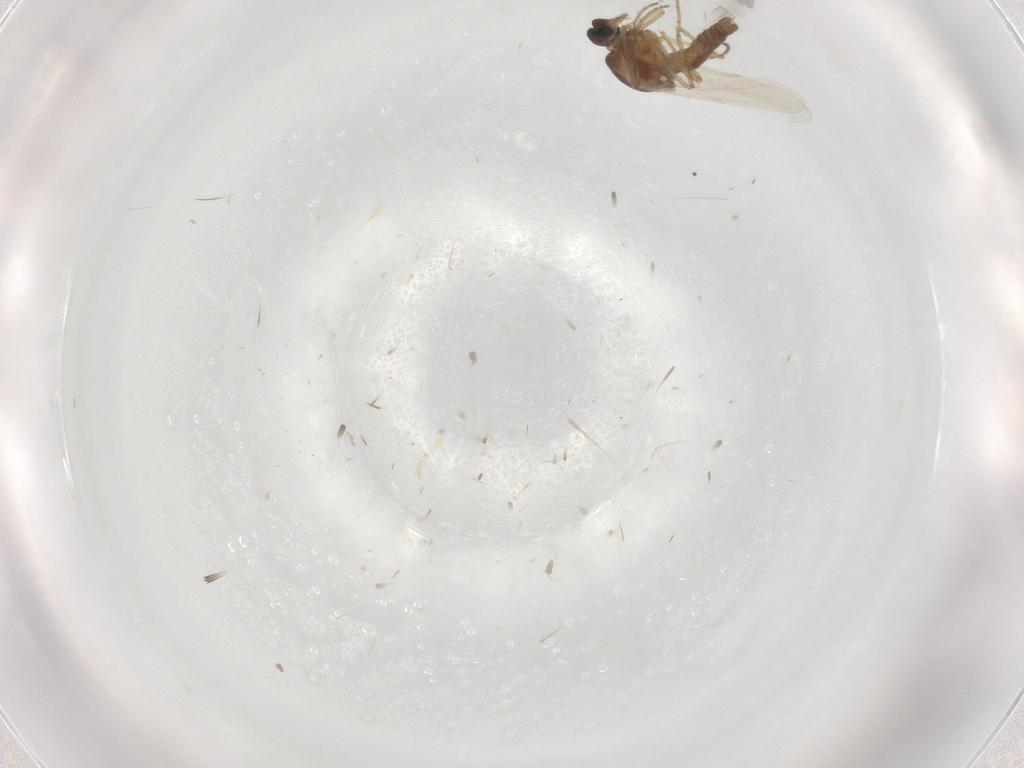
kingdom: Animalia
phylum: Arthropoda
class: Insecta
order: Diptera
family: Ceratopogonidae
